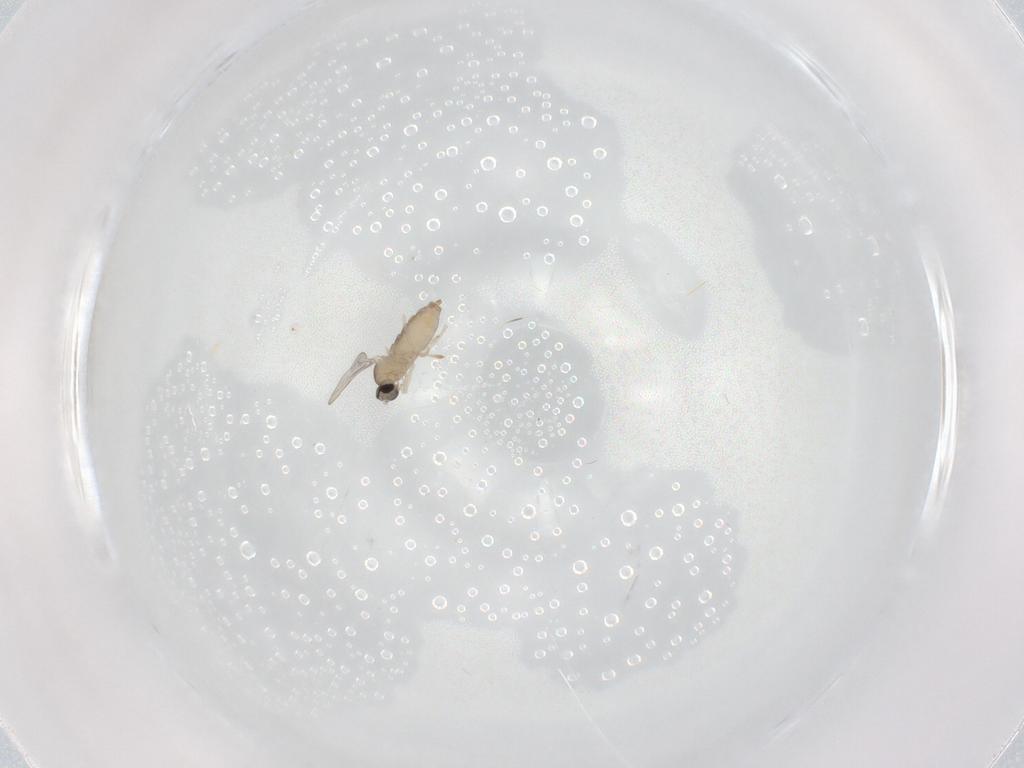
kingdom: Animalia
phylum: Arthropoda
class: Insecta
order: Diptera
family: Cecidomyiidae
